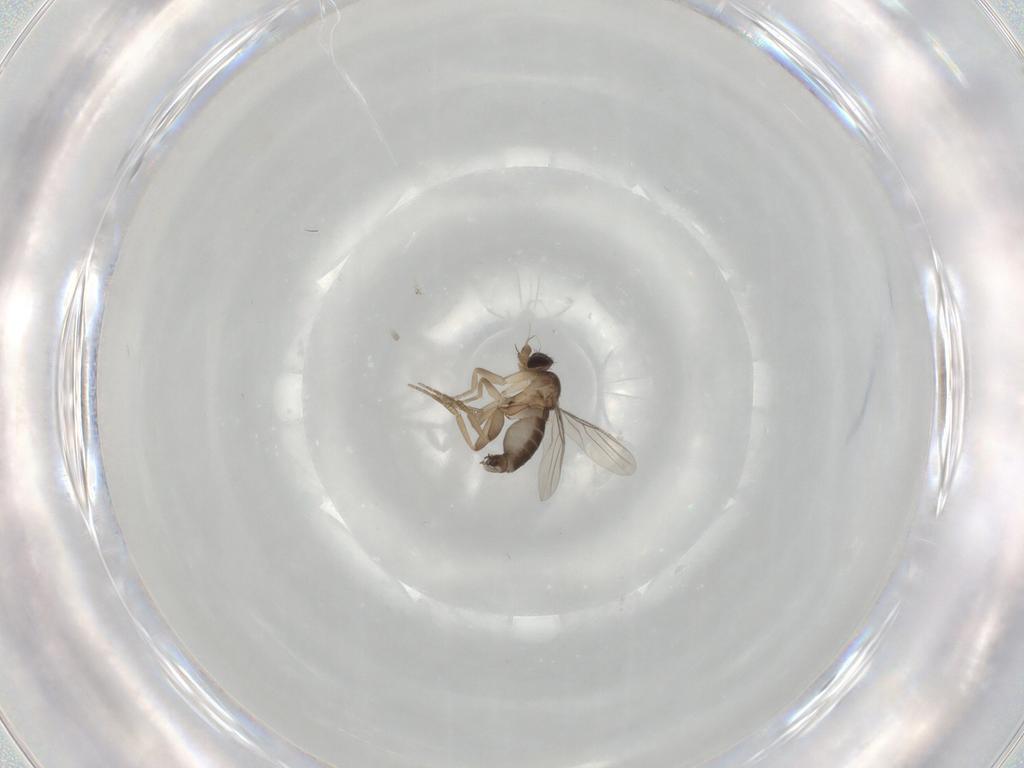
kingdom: Animalia
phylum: Arthropoda
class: Insecta
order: Diptera
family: Phoridae
